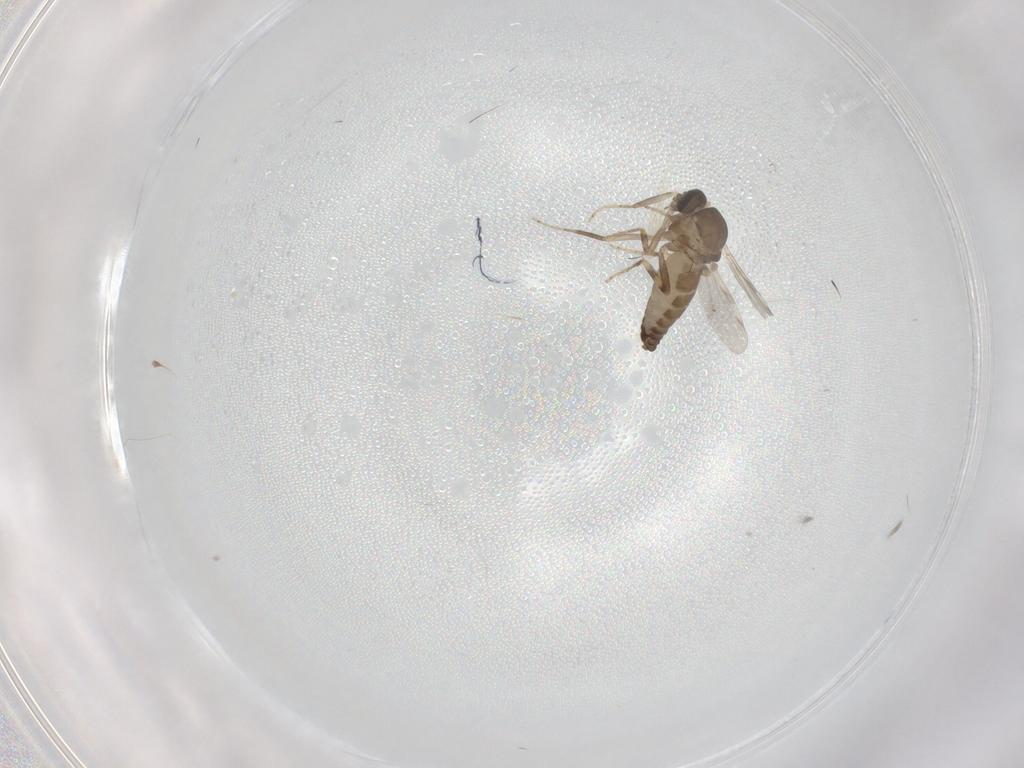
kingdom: Animalia
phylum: Arthropoda
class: Insecta
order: Diptera
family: Ceratopogonidae
